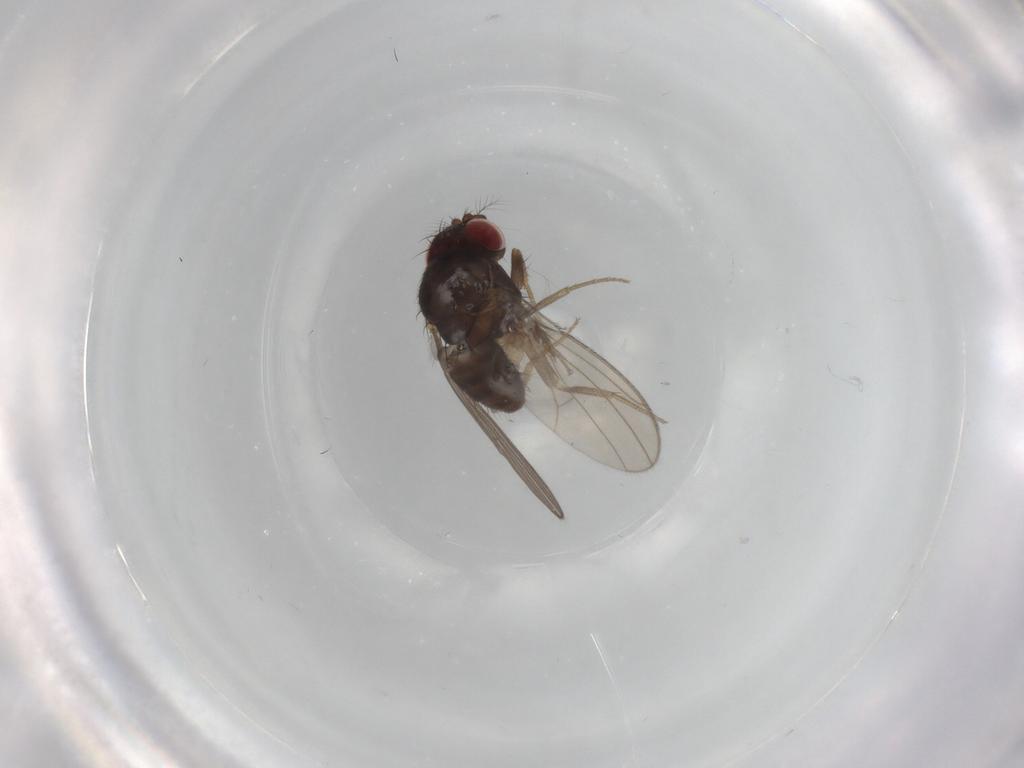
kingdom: Animalia
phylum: Arthropoda
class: Insecta
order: Diptera
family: Drosophilidae
